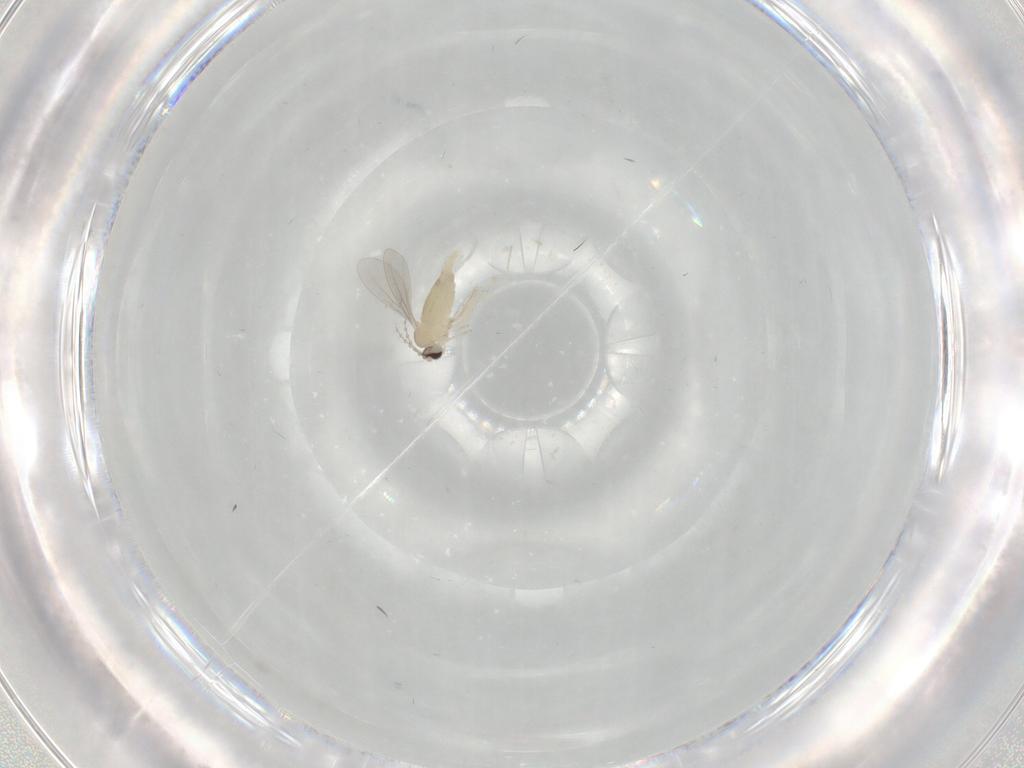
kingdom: Animalia
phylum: Arthropoda
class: Insecta
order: Diptera
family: Cecidomyiidae
